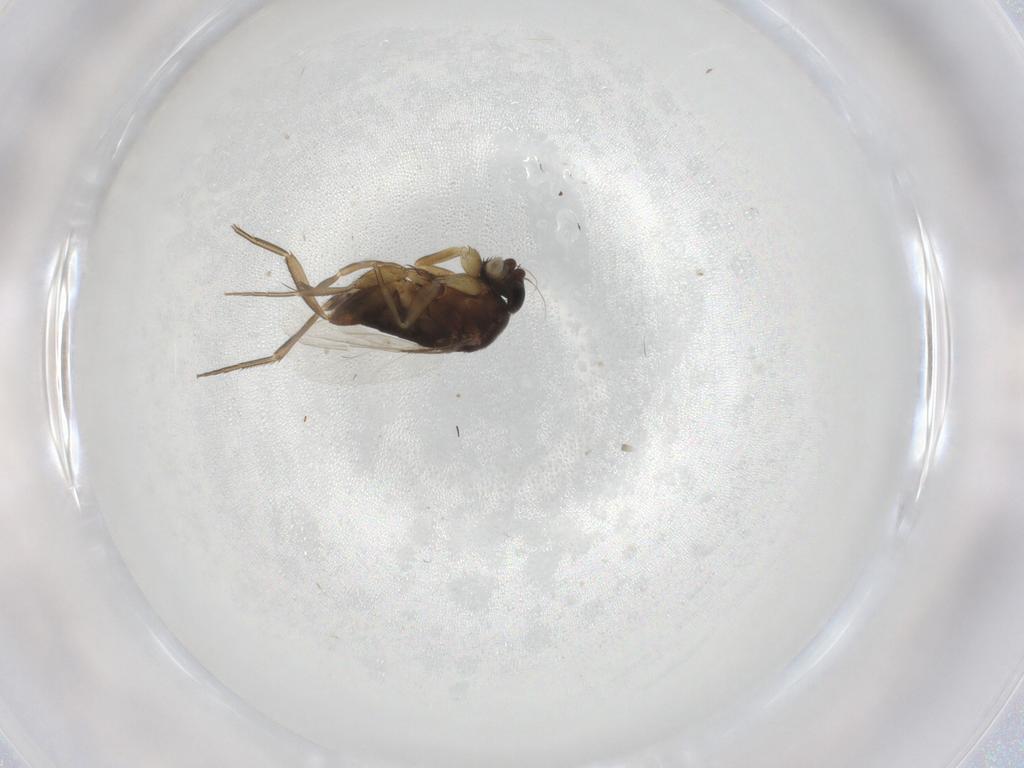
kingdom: Animalia
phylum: Arthropoda
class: Insecta
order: Diptera
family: Phoridae
